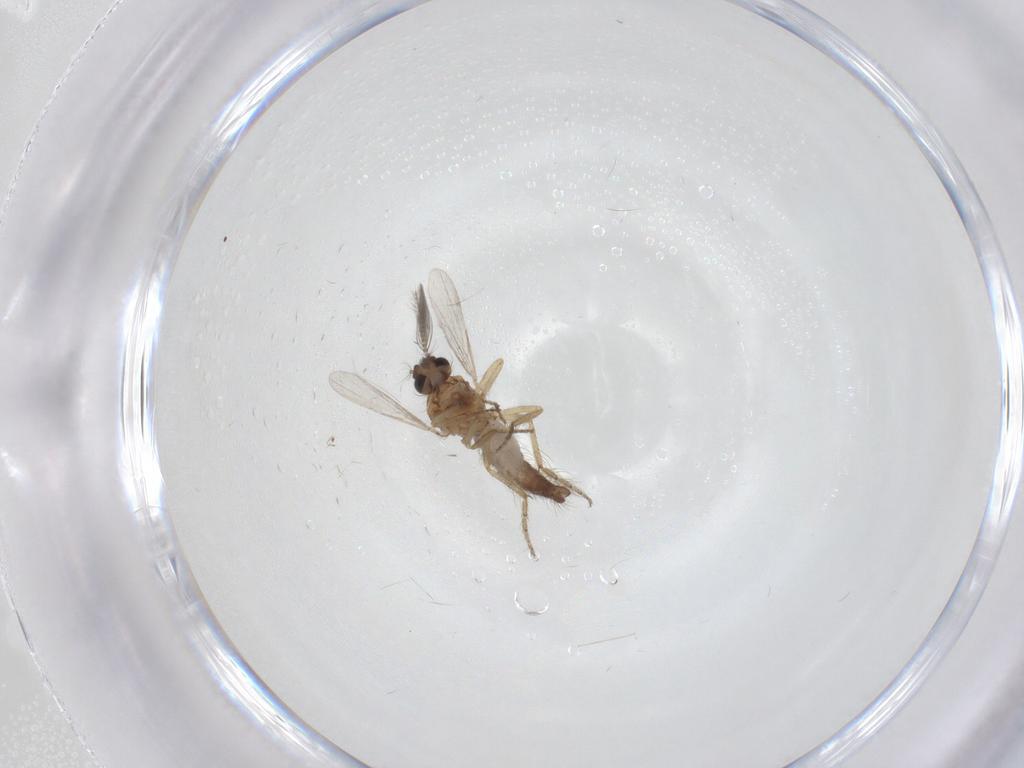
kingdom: Animalia
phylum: Arthropoda
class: Insecta
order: Diptera
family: Ceratopogonidae
